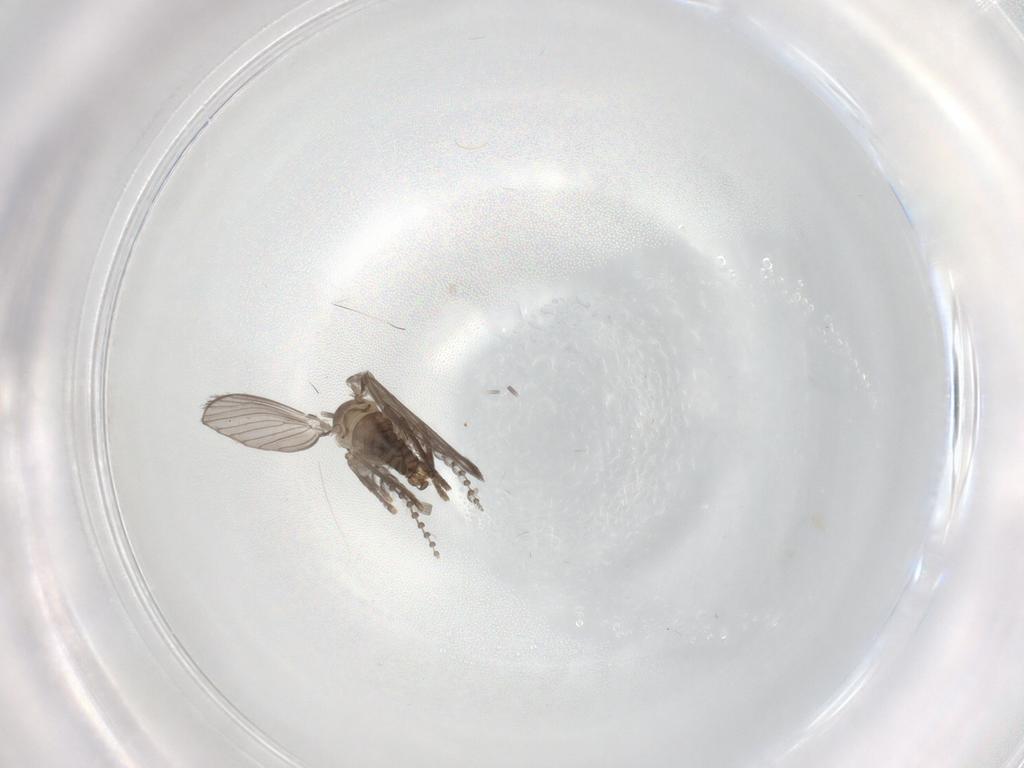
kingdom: Animalia
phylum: Arthropoda
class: Insecta
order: Diptera
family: Psychodidae
